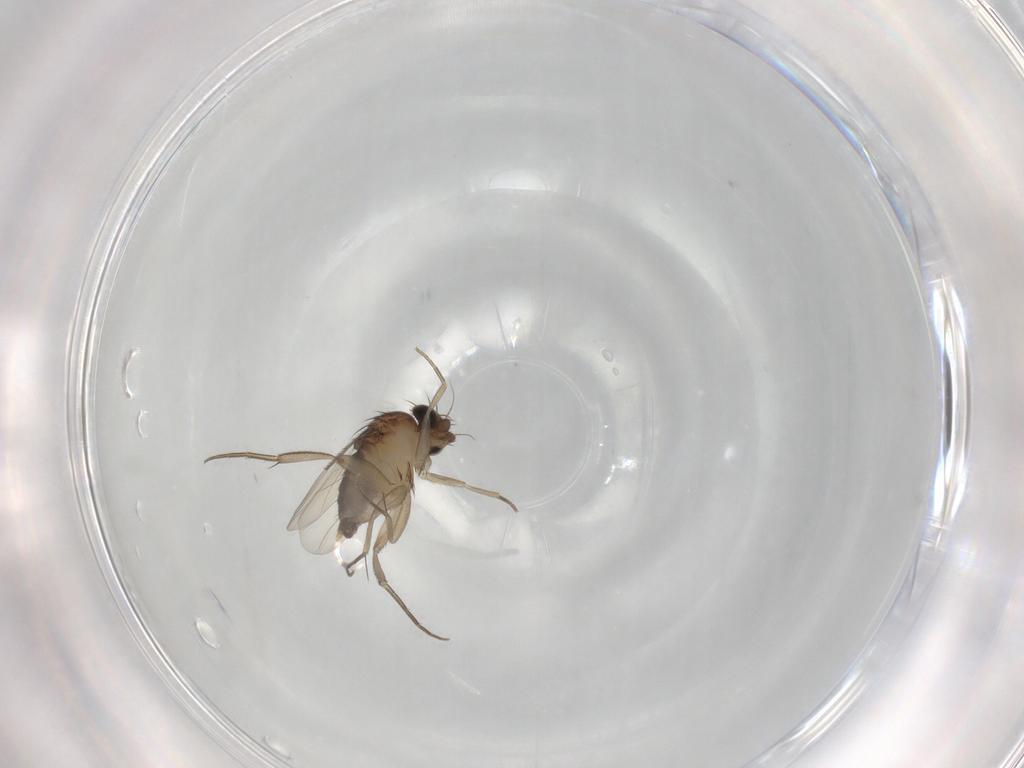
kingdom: Animalia
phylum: Arthropoda
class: Insecta
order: Diptera
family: Phoridae
